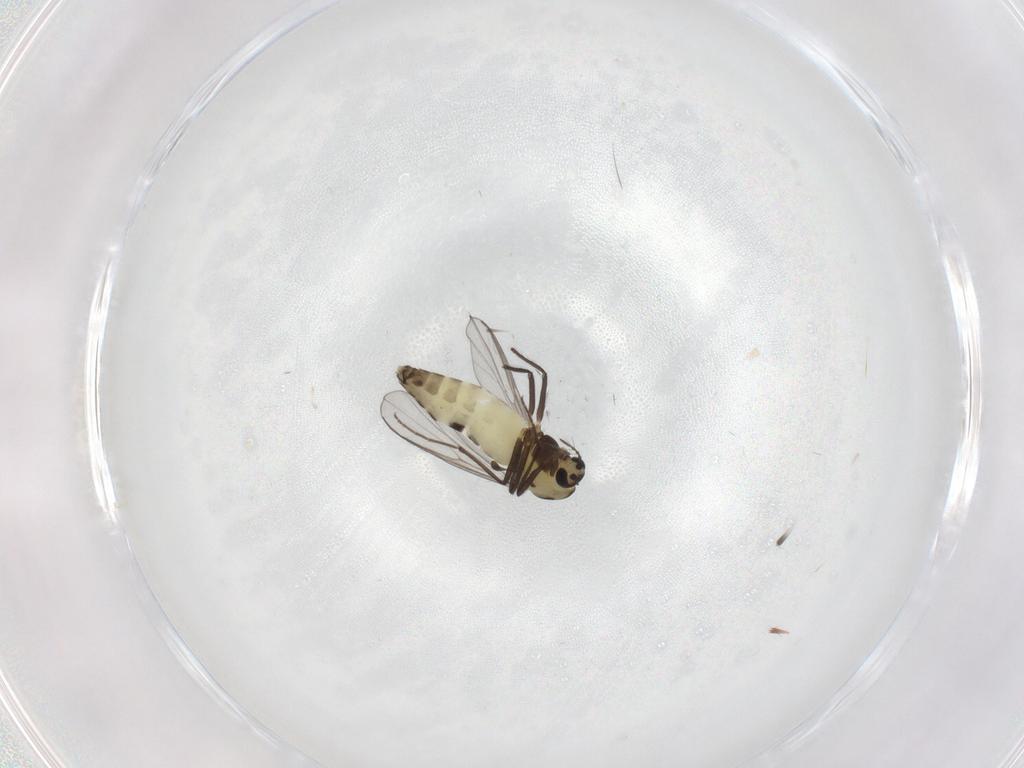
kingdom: Animalia
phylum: Arthropoda
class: Insecta
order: Diptera
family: Chironomidae
